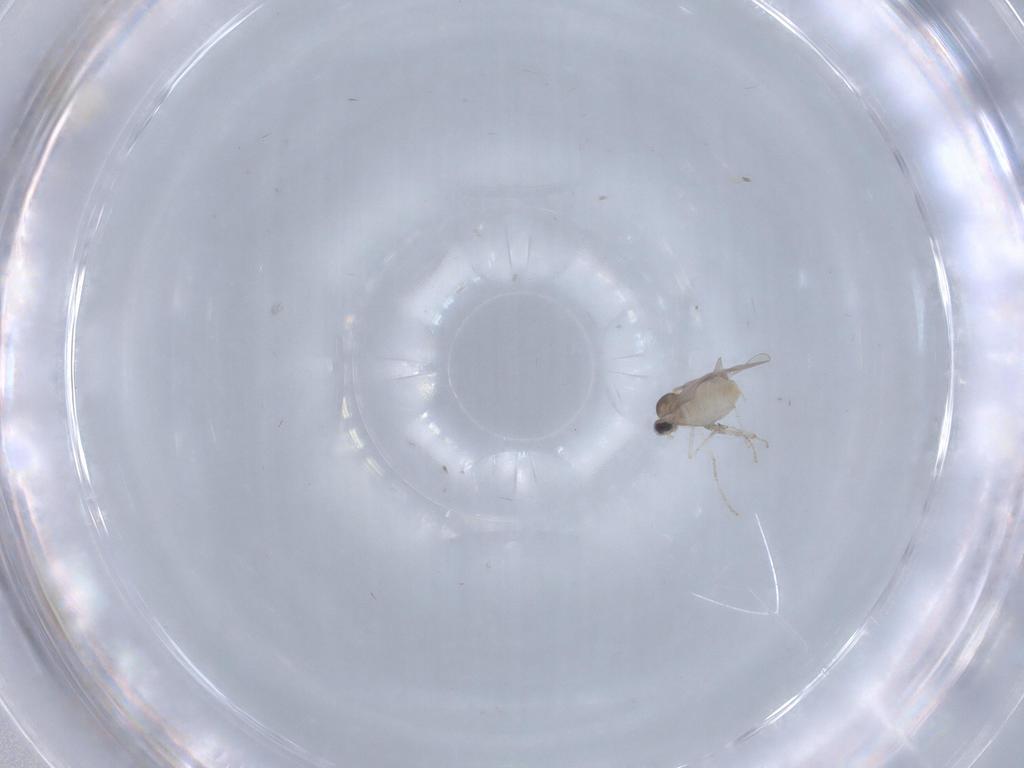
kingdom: Animalia
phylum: Arthropoda
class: Insecta
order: Diptera
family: Cecidomyiidae
